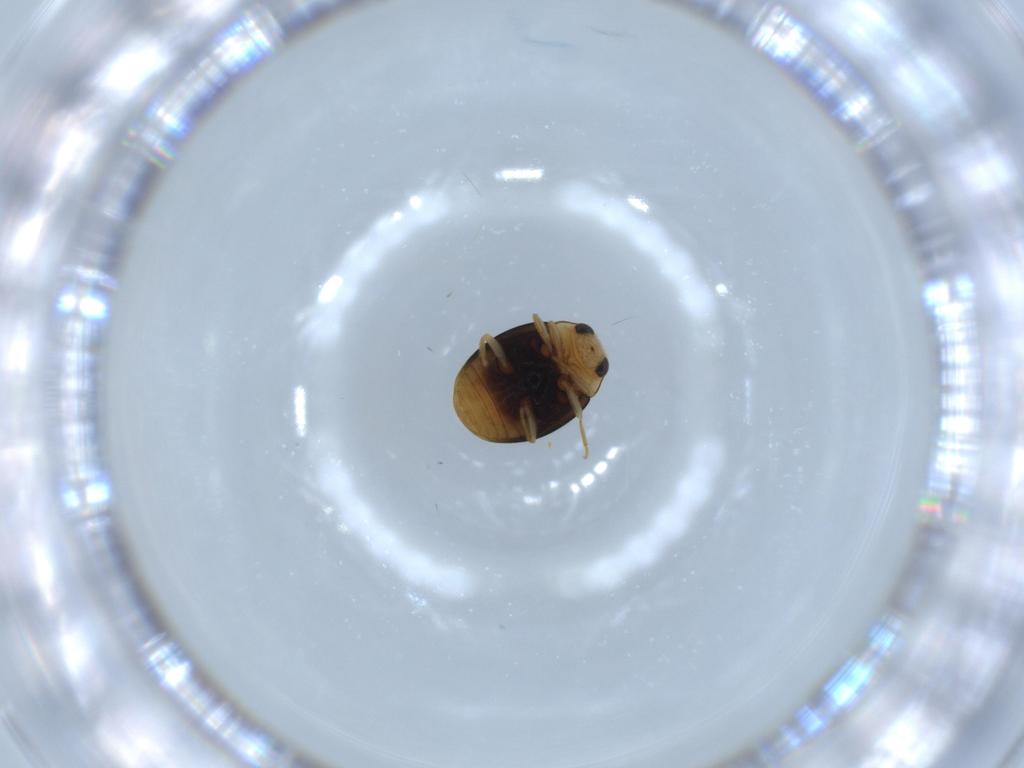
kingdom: Animalia
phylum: Arthropoda
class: Insecta
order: Coleoptera
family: Coccinellidae
